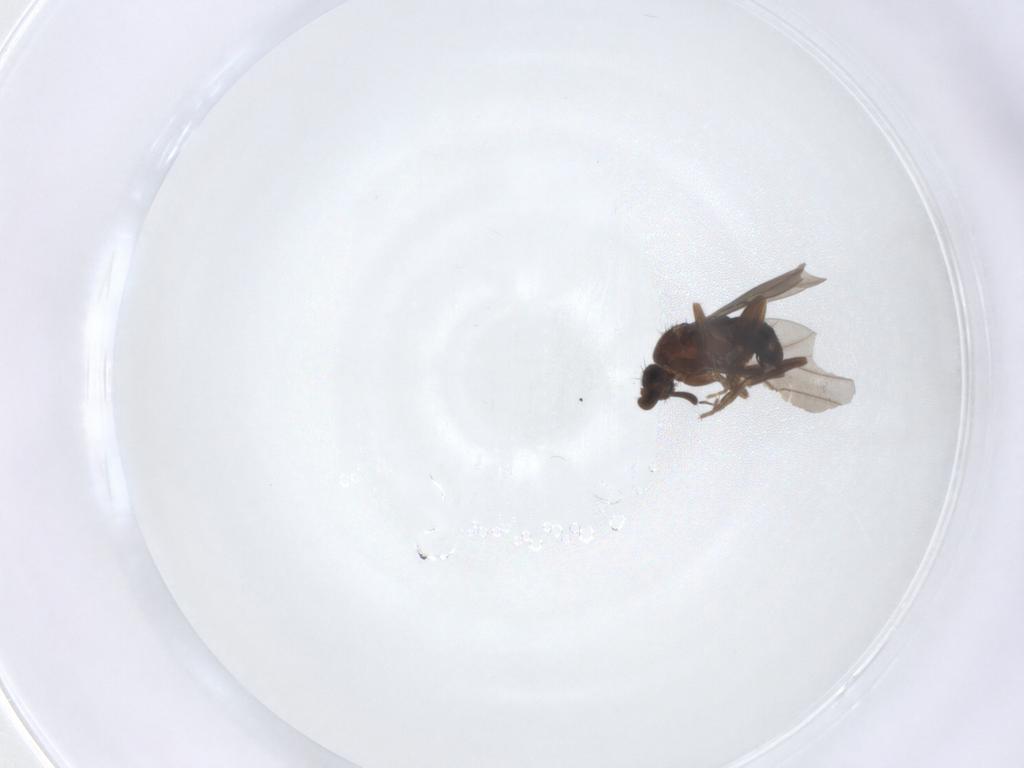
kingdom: Animalia
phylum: Arthropoda
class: Insecta
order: Diptera
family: Phoridae
